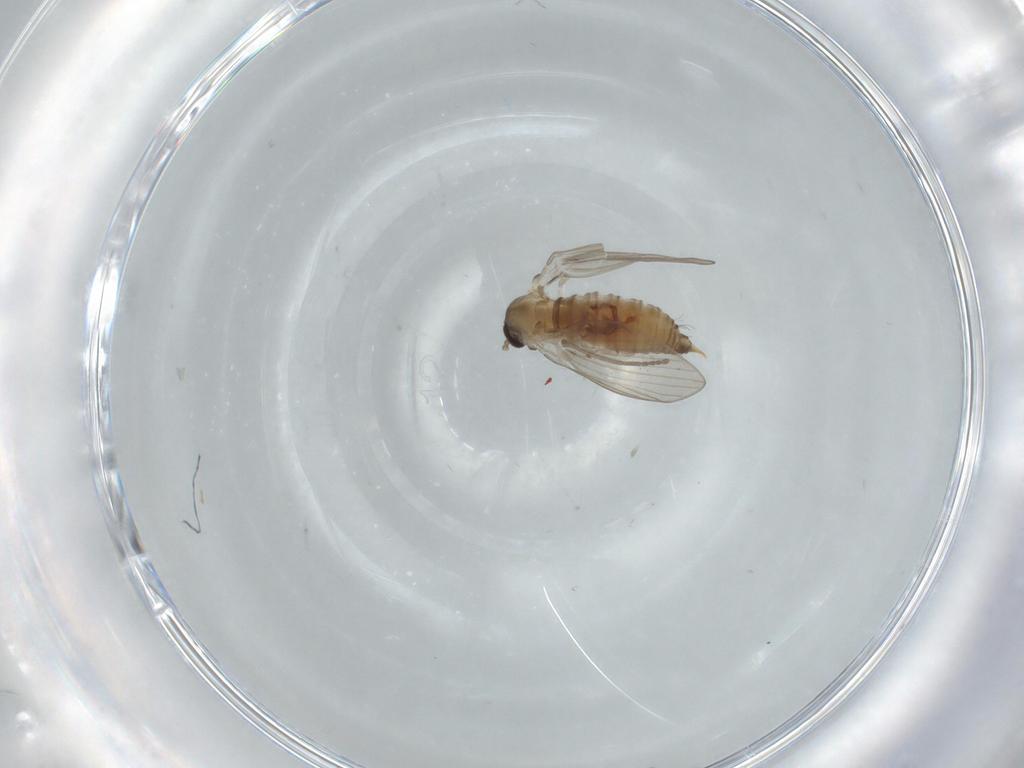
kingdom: Animalia
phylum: Arthropoda
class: Insecta
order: Diptera
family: Psychodidae
